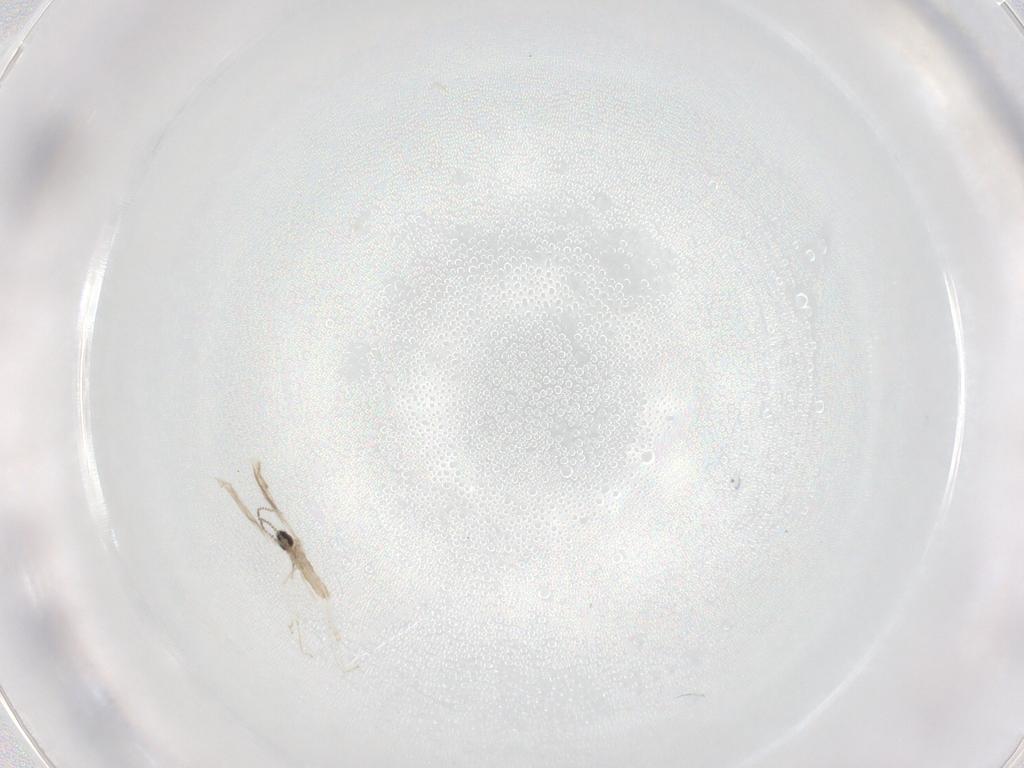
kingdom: Animalia
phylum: Arthropoda
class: Insecta
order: Diptera
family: Cecidomyiidae
